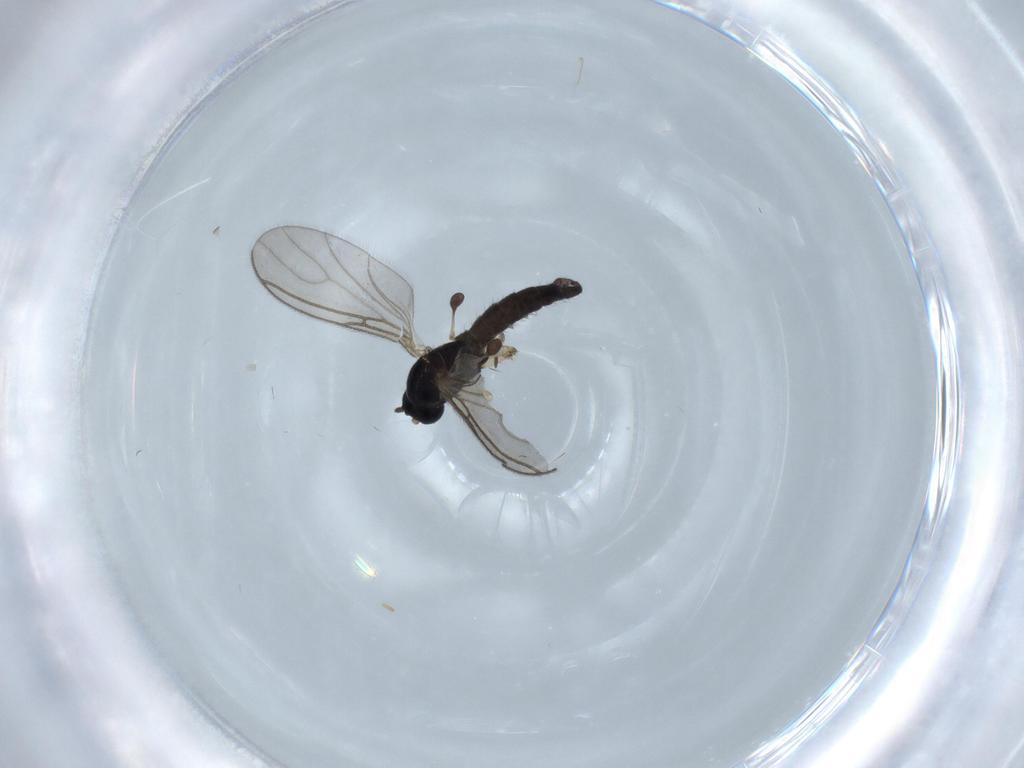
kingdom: Animalia
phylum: Arthropoda
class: Insecta
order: Diptera
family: Sciaridae
